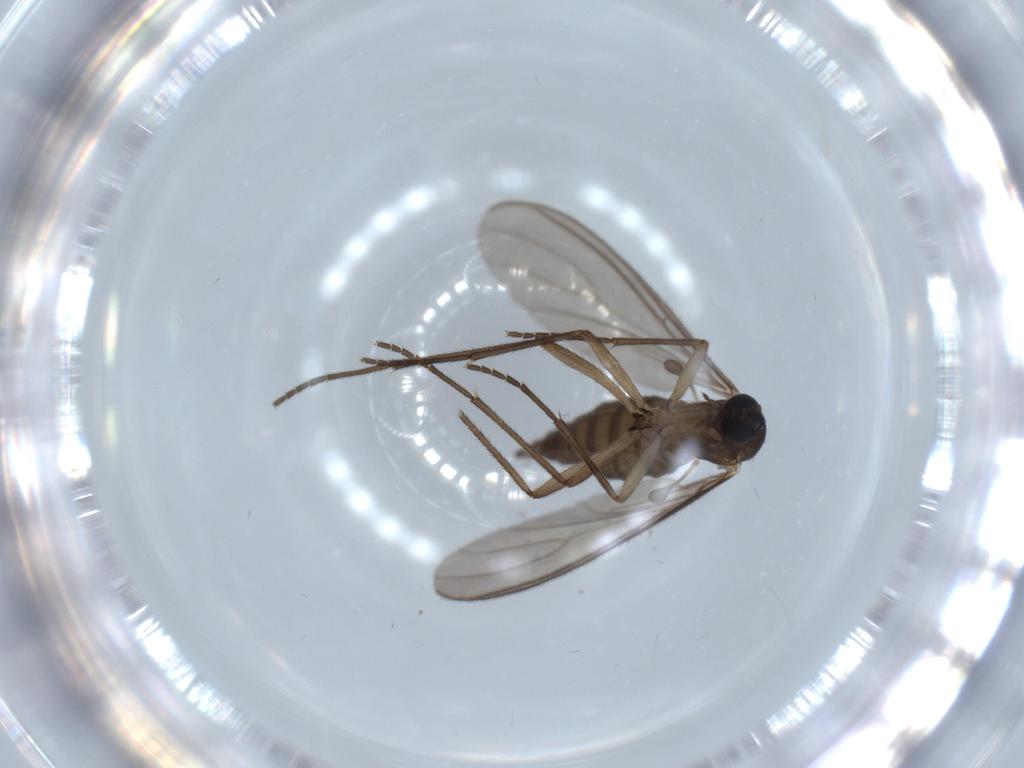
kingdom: Animalia
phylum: Arthropoda
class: Insecta
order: Diptera
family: Sciaridae
